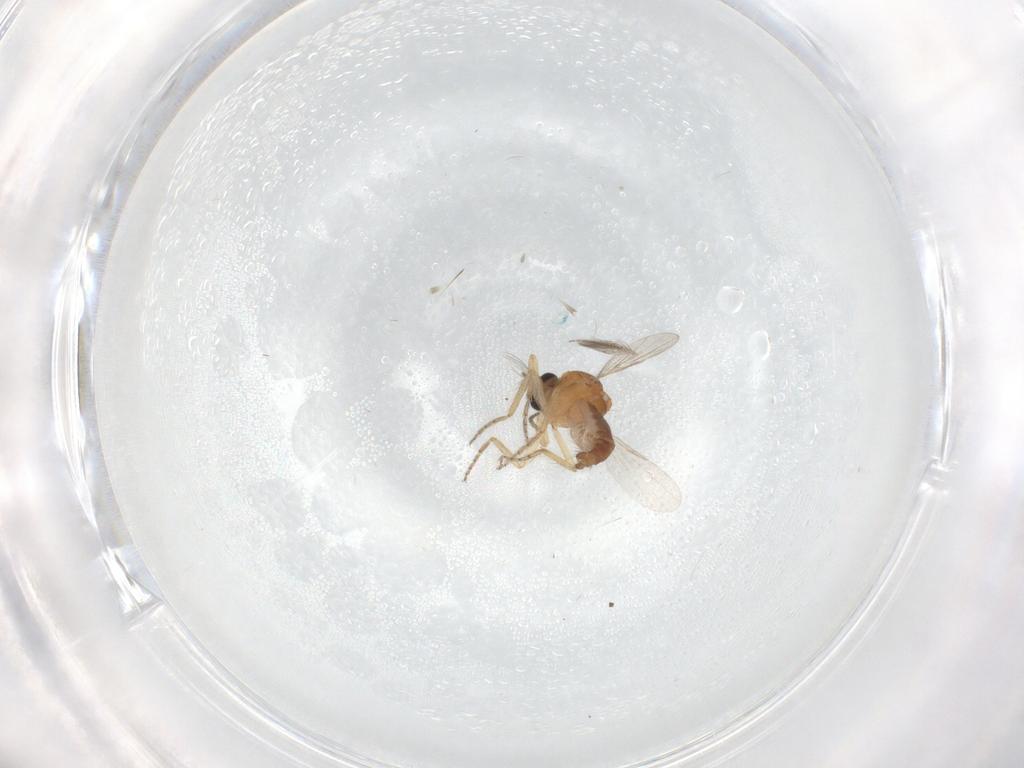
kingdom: Animalia
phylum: Arthropoda
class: Insecta
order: Diptera
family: Ceratopogonidae
